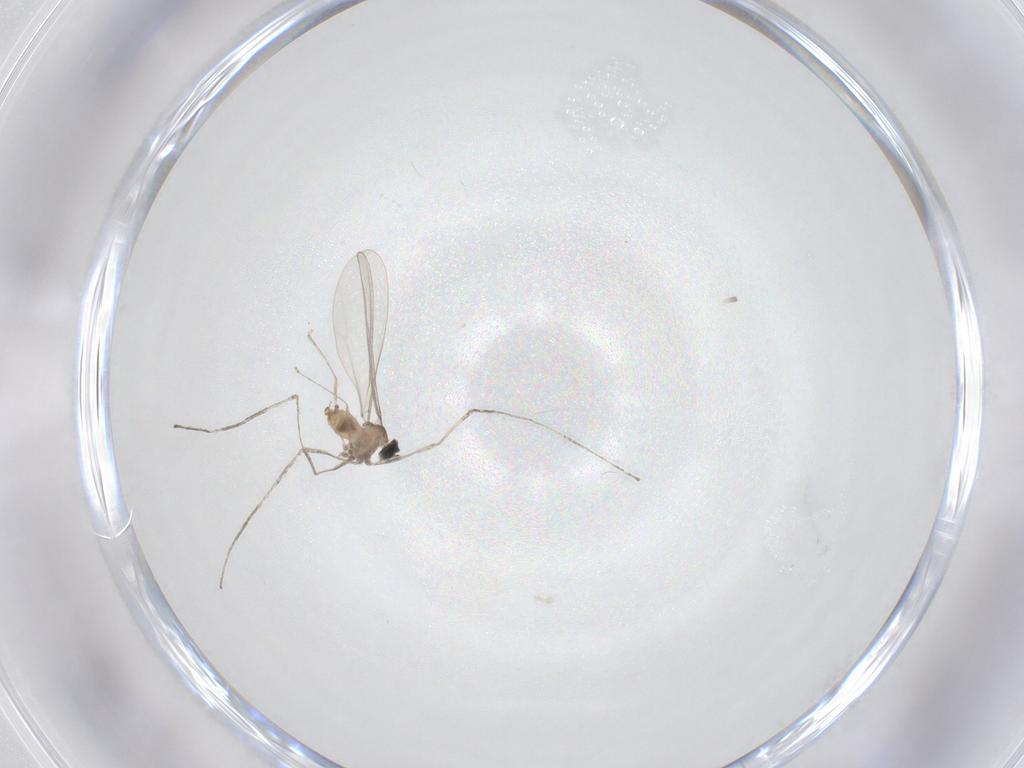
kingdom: Animalia
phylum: Arthropoda
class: Insecta
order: Diptera
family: Cecidomyiidae
